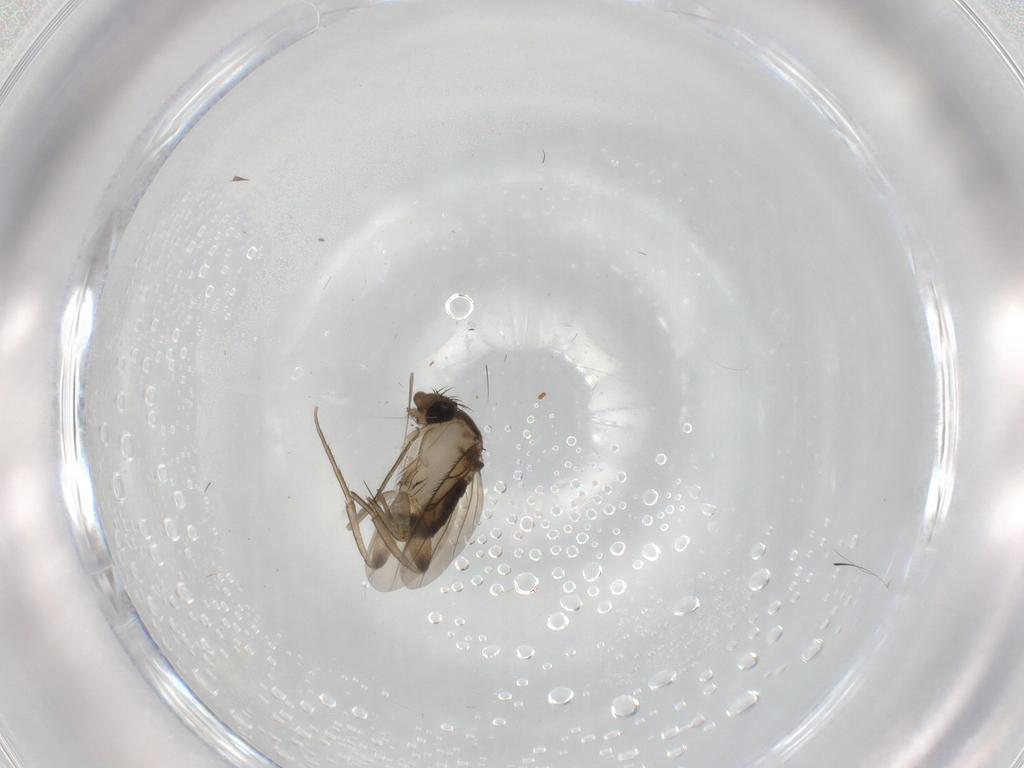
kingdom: Animalia
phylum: Arthropoda
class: Insecta
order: Diptera
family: Phoridae
